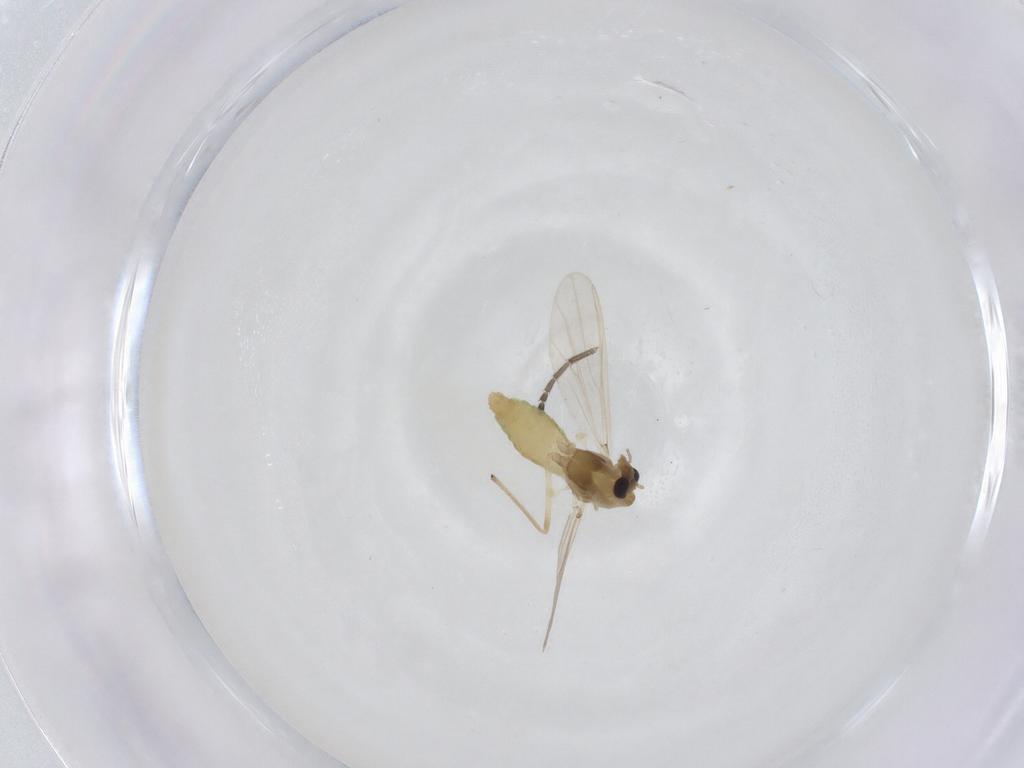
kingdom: Animalia
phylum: Arthropoda
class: Insecta
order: Diptera
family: Chironomidae
